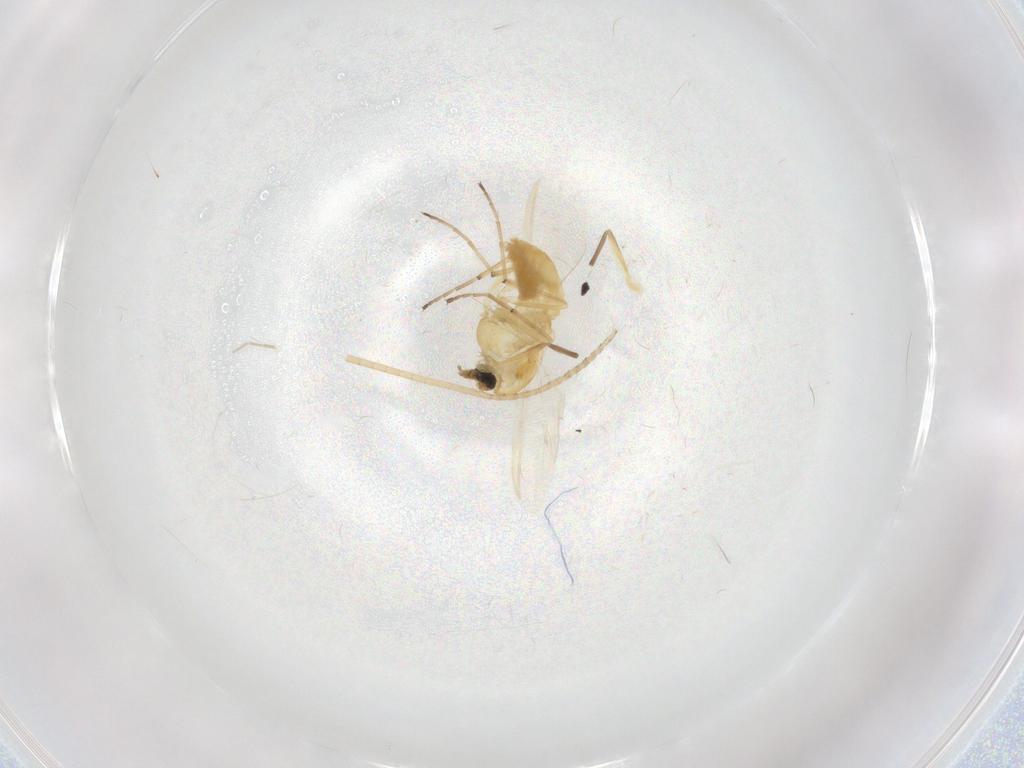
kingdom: Animalia
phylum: Arthropoda
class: Insecta
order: Diptera
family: Chironomidae
